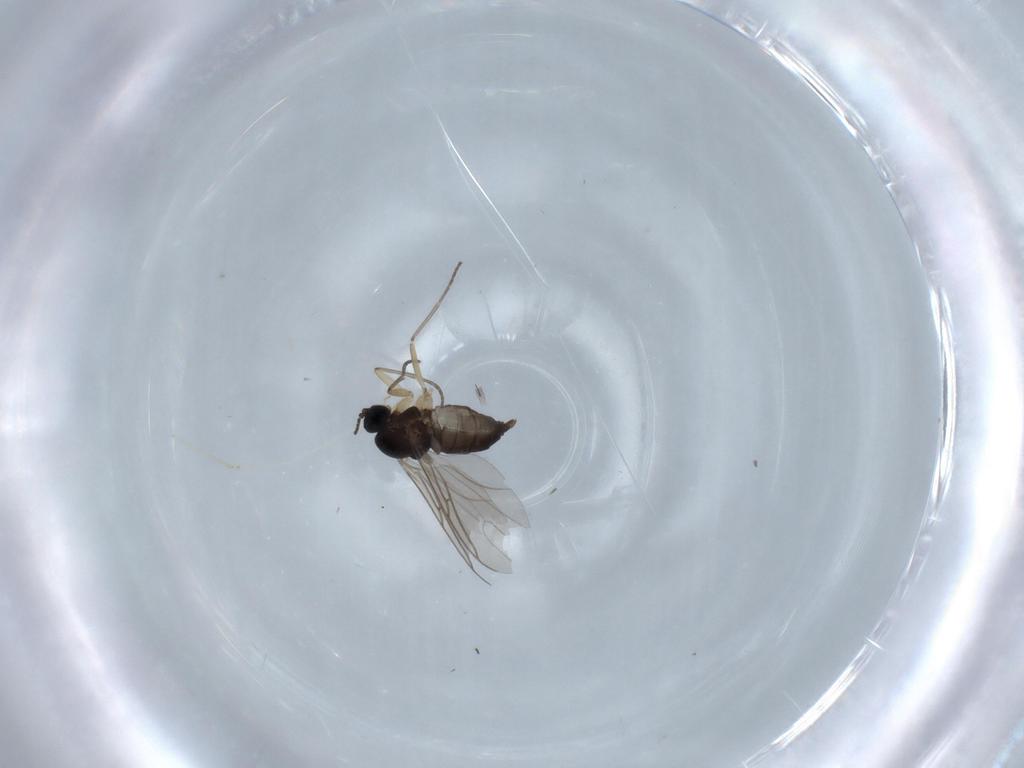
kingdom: Animalia
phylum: Arthropoda
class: Insecta
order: Diptera
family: Sciaridae
